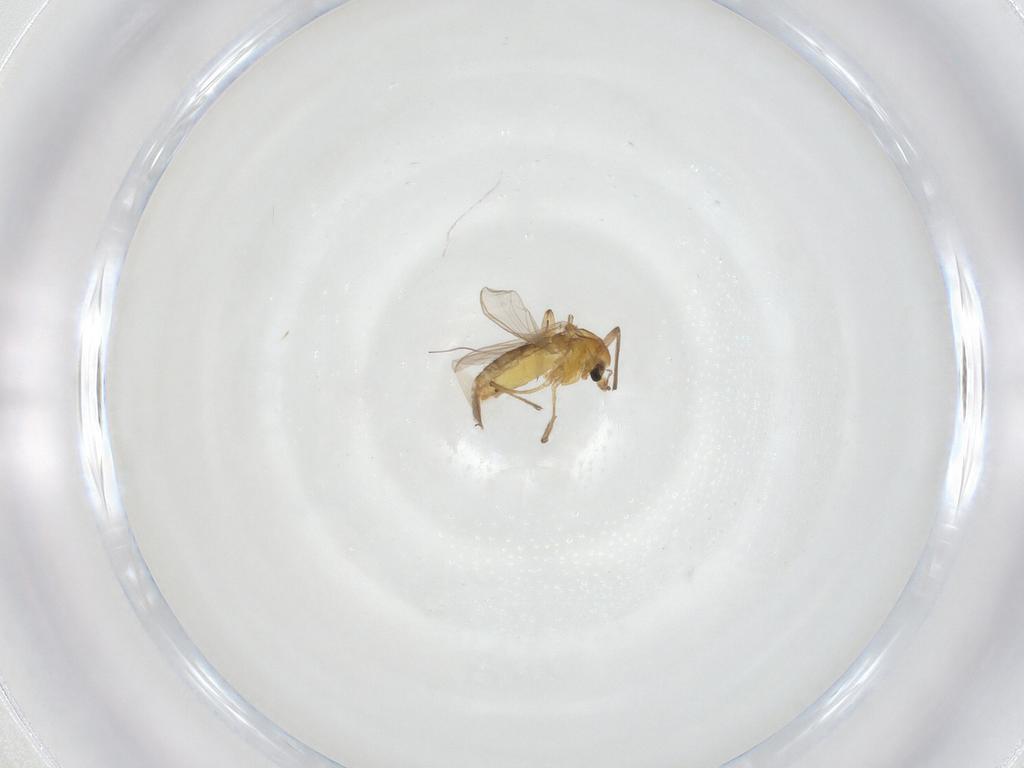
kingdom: Animalia
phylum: Arthropoda
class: Insecta
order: Diptera
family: Chironomidae
